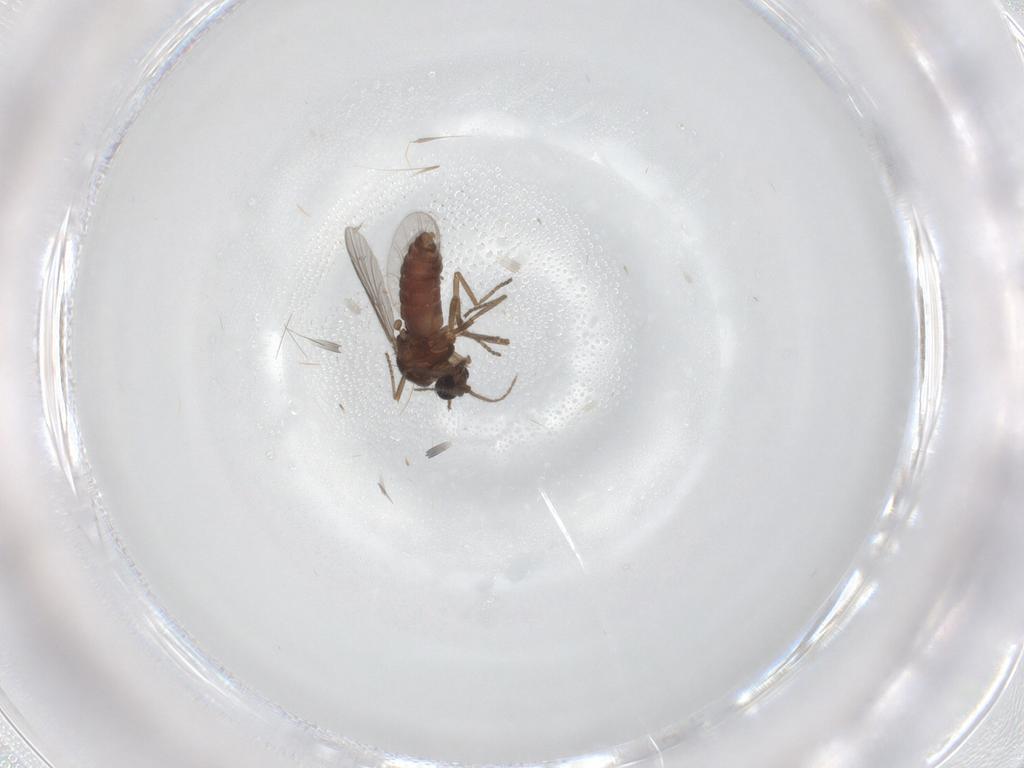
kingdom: Animalia
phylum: Arthropoda
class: Insecta
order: Diptera
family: Ceratopogonidae
